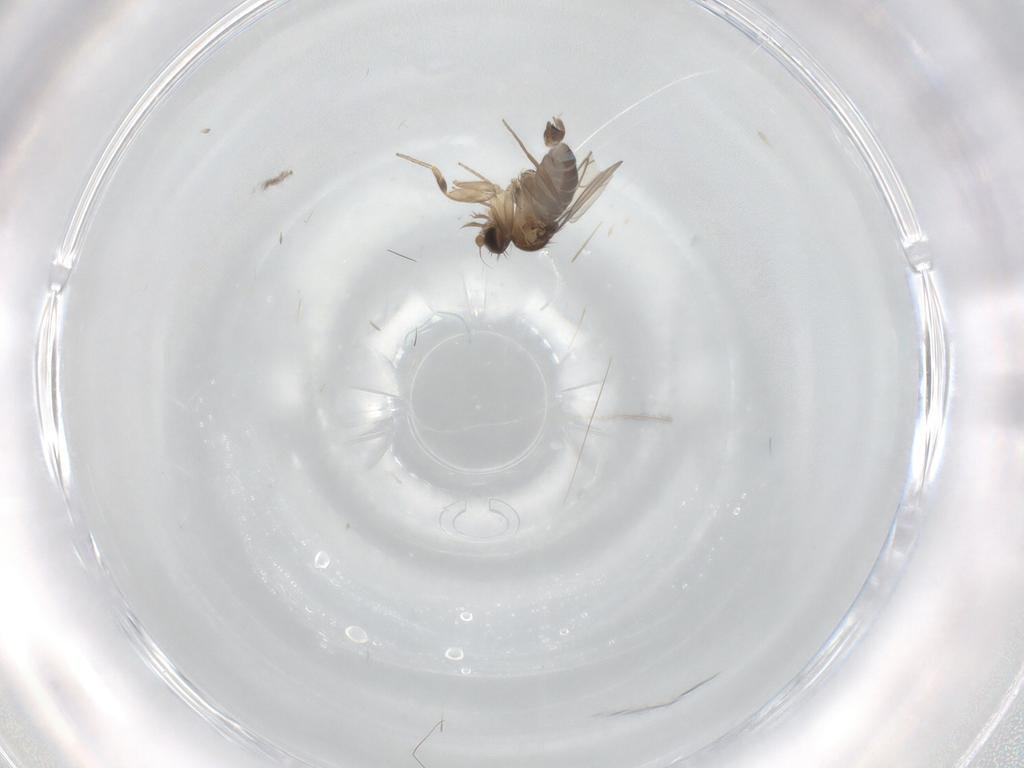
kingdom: Animalia
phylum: Arthropoda
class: Insecta
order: Diptera
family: Phoridae
